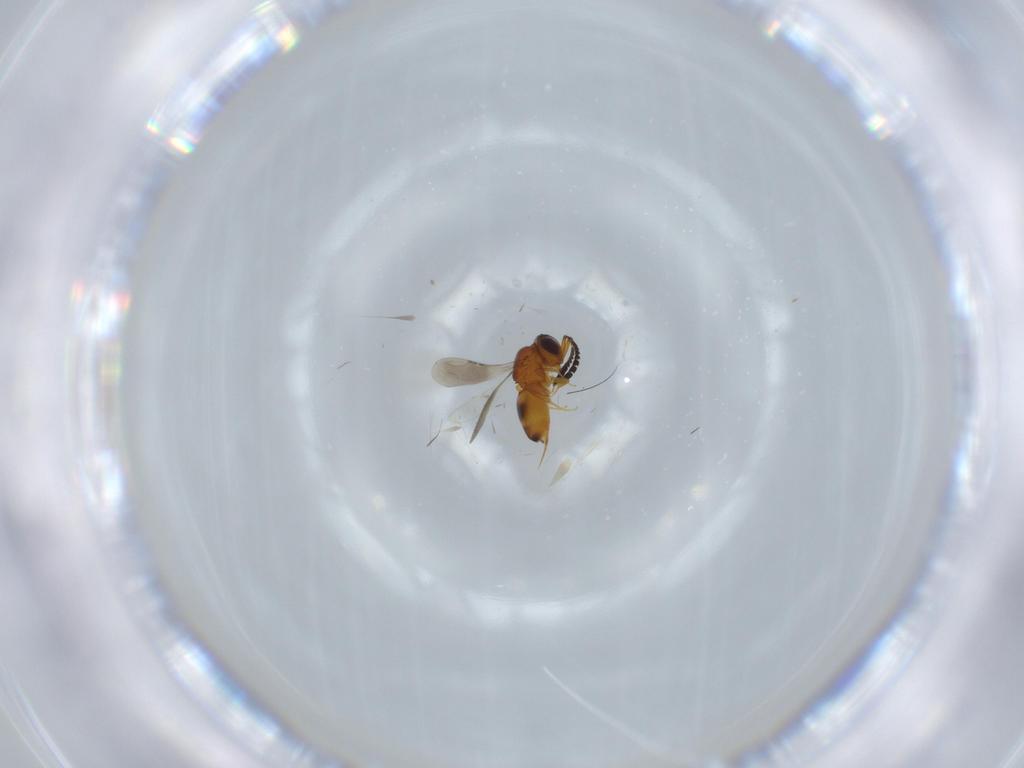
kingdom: Animalia
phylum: Arthropoda
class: Insecta
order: Hymenoptera
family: Ceraphronidae
